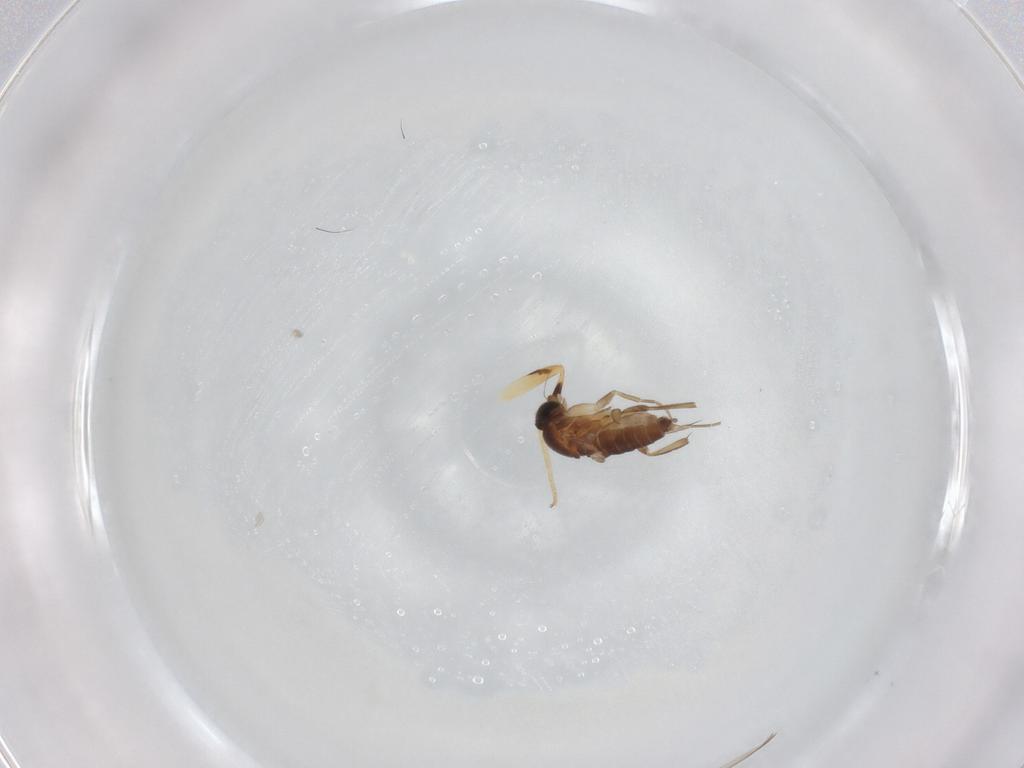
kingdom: Animalia
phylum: Arthropoda
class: Insecta
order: Diptera
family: Phoridae
